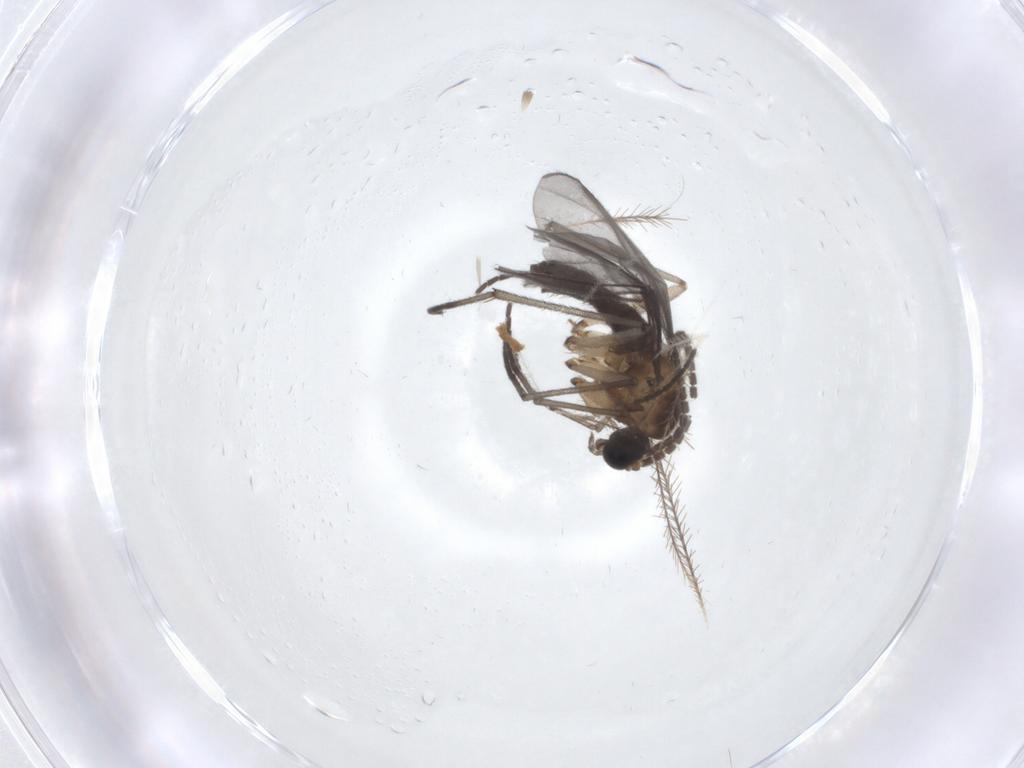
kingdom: Animalia
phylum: Arthropoda
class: Insecta
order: Diptera
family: Sciaridae
